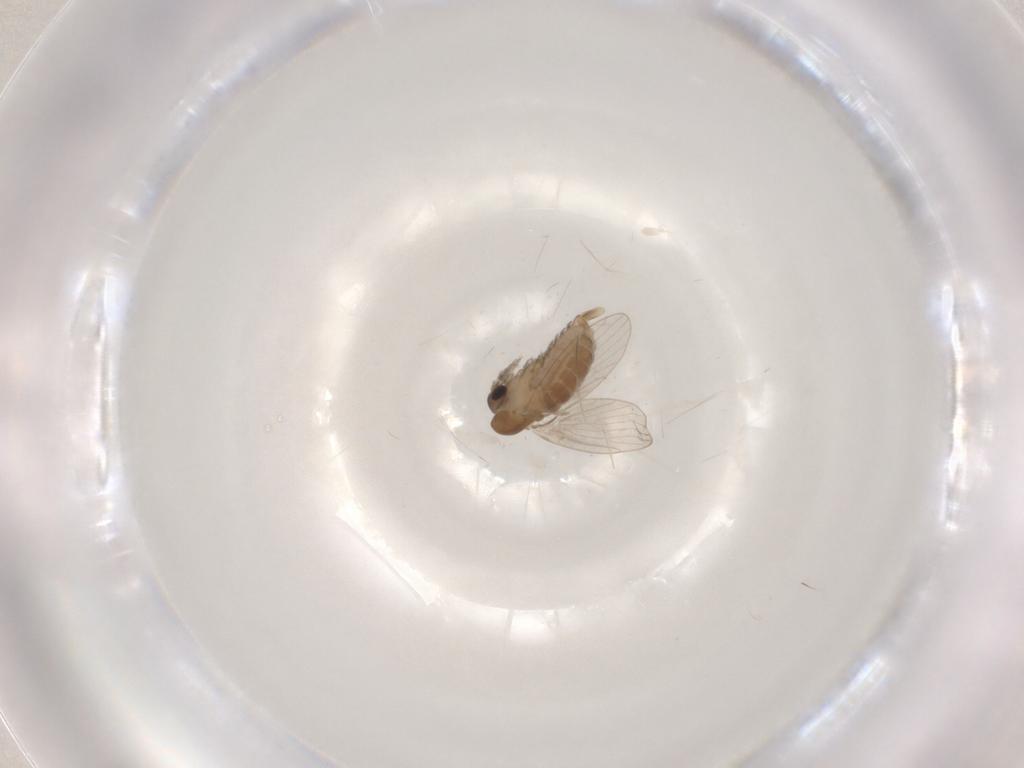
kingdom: Animalia
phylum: Arthropoda
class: Insecta
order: Diptera
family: Psychodidae
